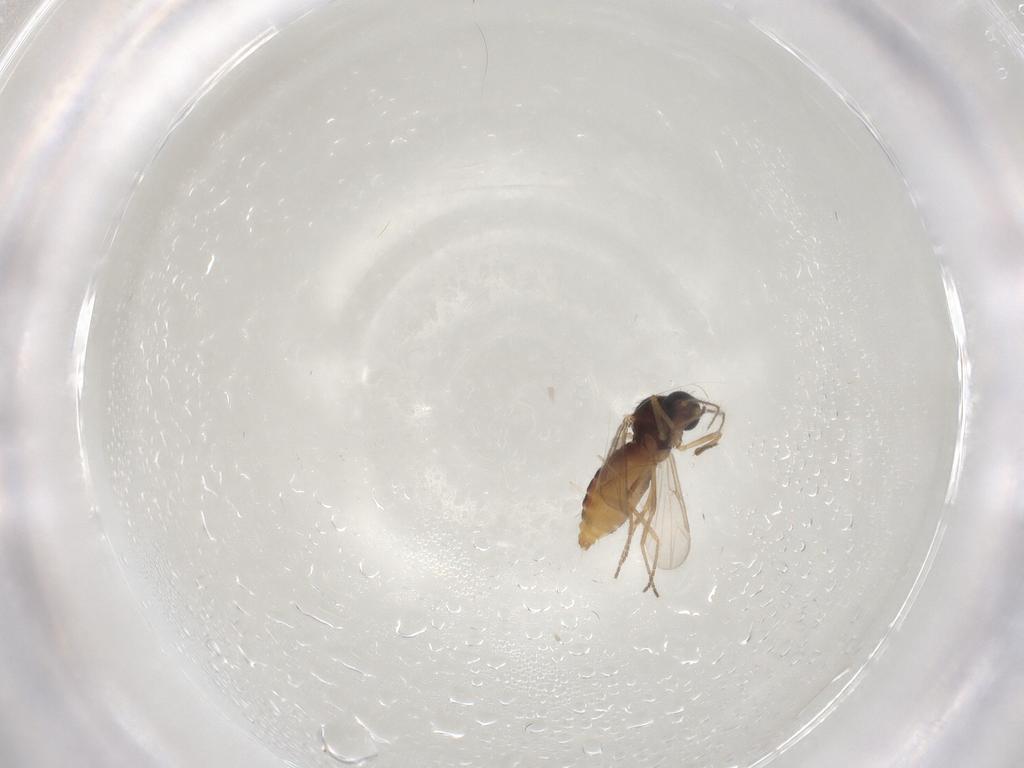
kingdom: Animalia
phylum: Arthropoda
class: Insecta
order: Diptera
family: Ceratopogonidae
